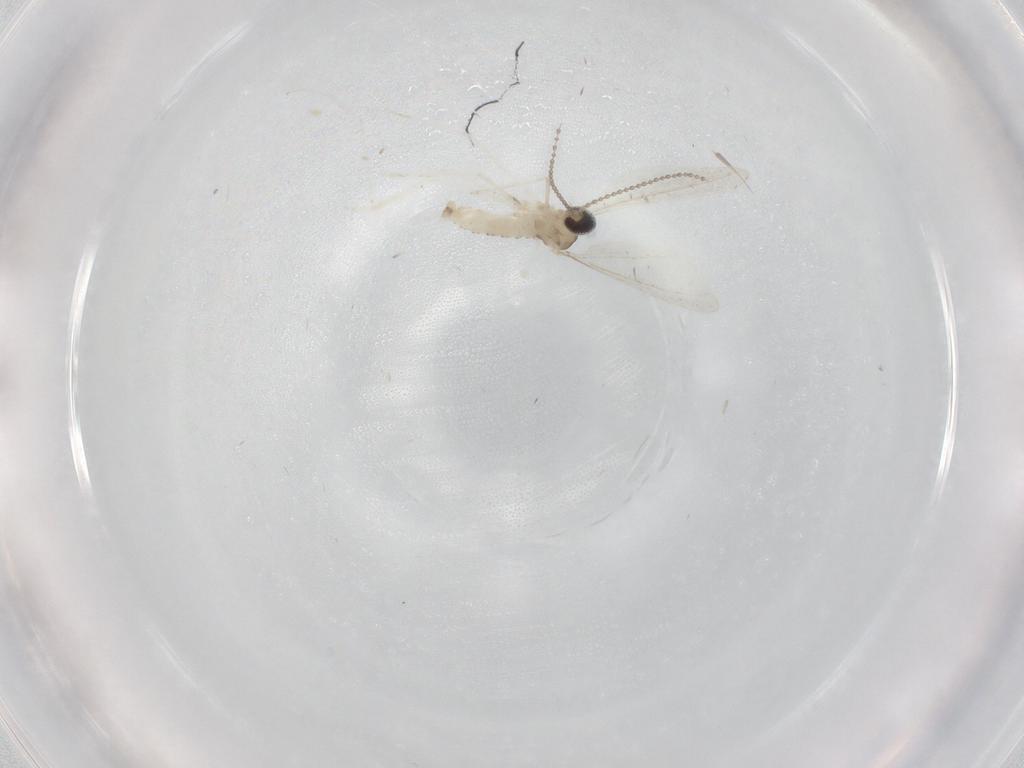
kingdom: Animalia
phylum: Arthropoda
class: Insecta
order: Diptera
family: Cecidomyiidae
